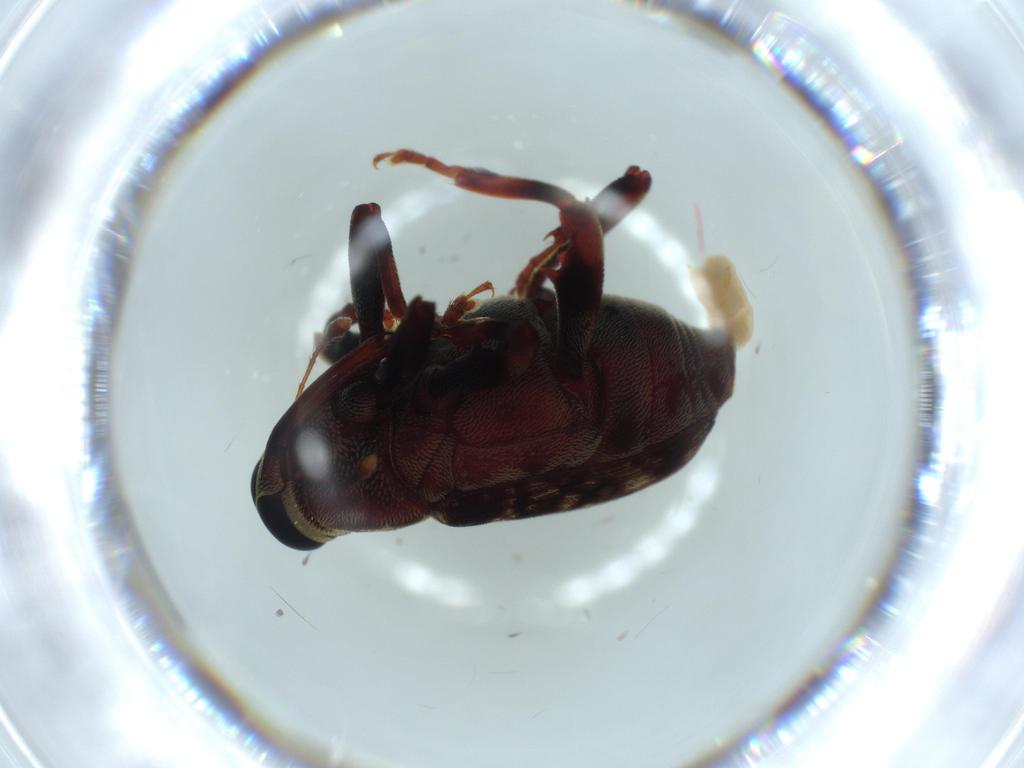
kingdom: Animalia
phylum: Arthropoda
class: Insecta
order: Coleoptera
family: Curculionidae
